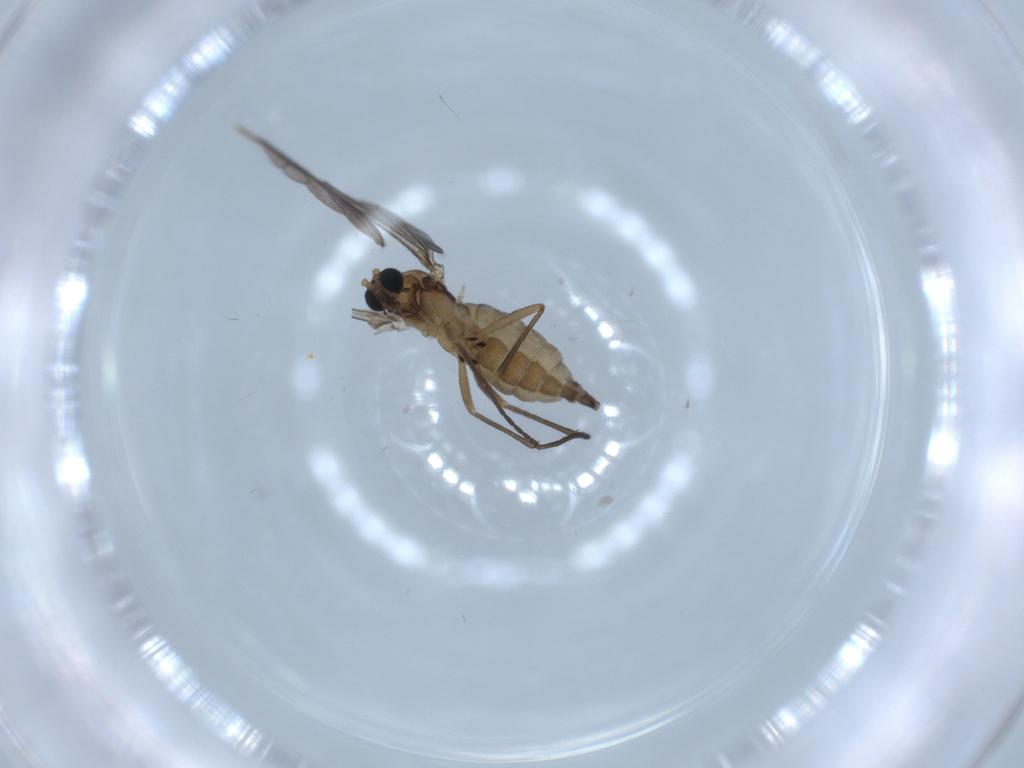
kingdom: Animalia
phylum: Arthropoda
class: Insecta
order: Diptera
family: Sciaridae
